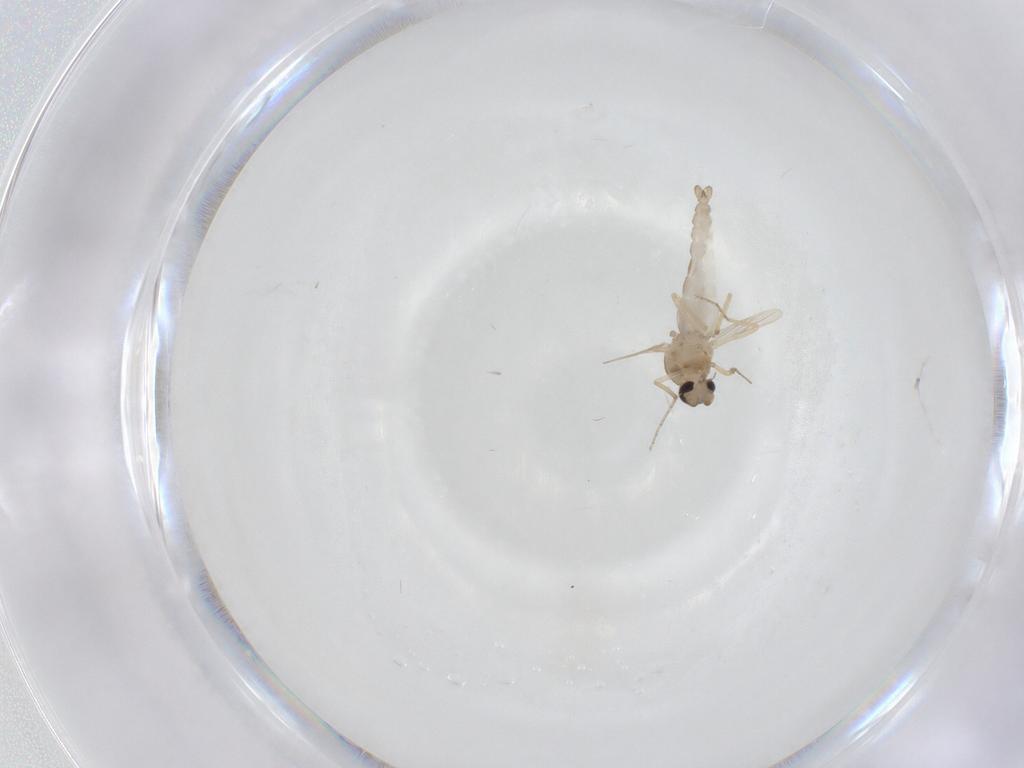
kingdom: Animalia
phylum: Arthropoda
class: Insecta
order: Diptera
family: Ceratopogonidae
